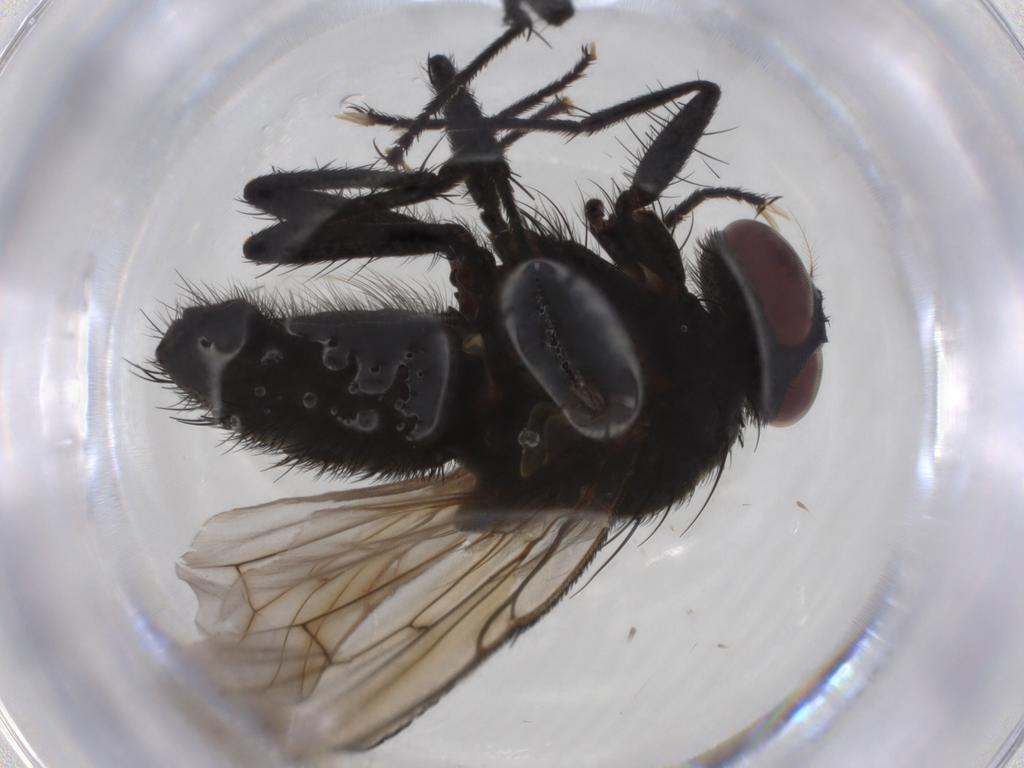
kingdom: Animalia
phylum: Arthropoda
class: Insecta
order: Diptera
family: Muscidae
